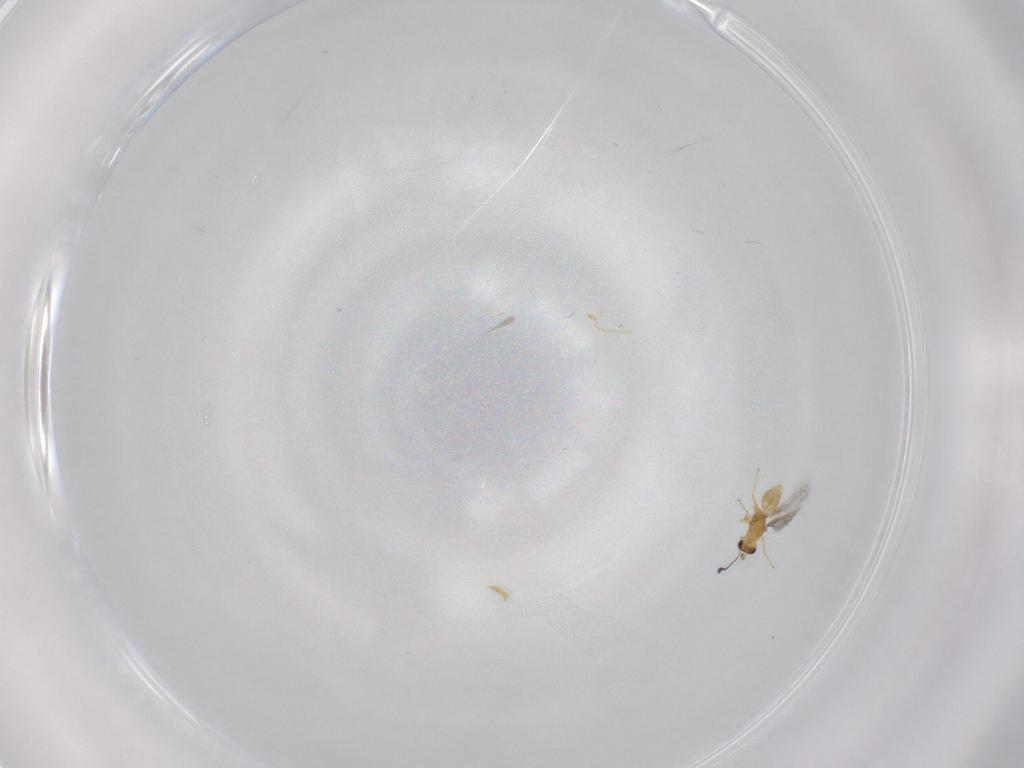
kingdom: Animalia
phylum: Arthropoda
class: Insecta
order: Hymenoptera
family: Mymaridae
